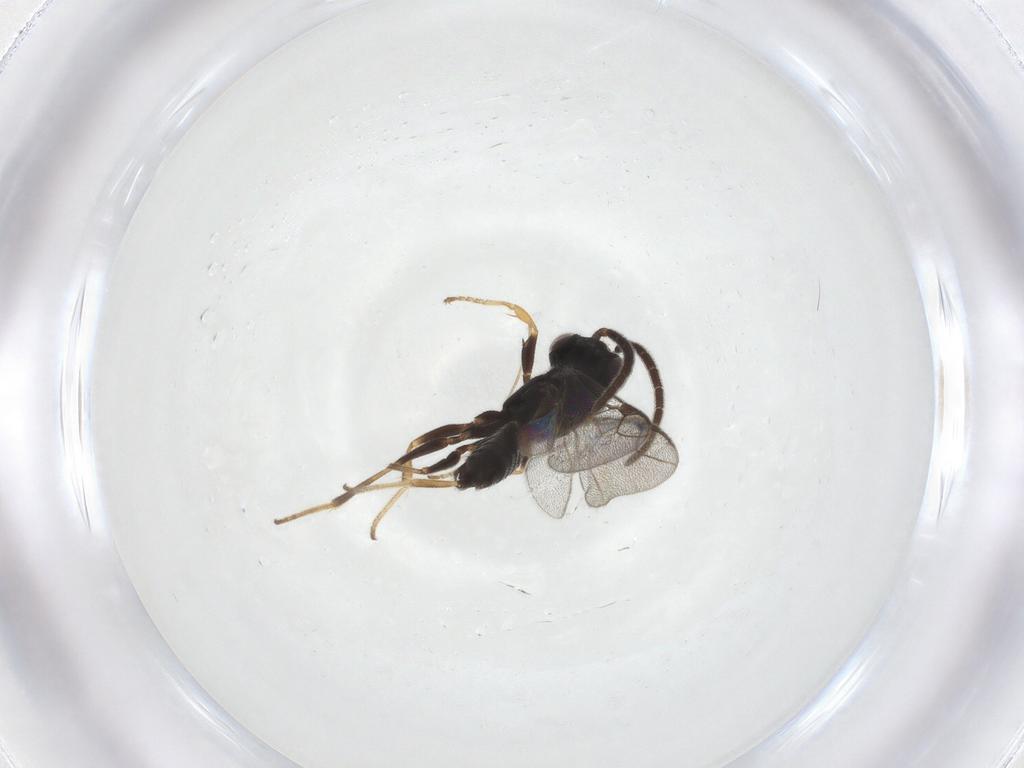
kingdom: Animalia
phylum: Arthropoda
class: Insecta
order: Hymenoptera
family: Dryinidae
